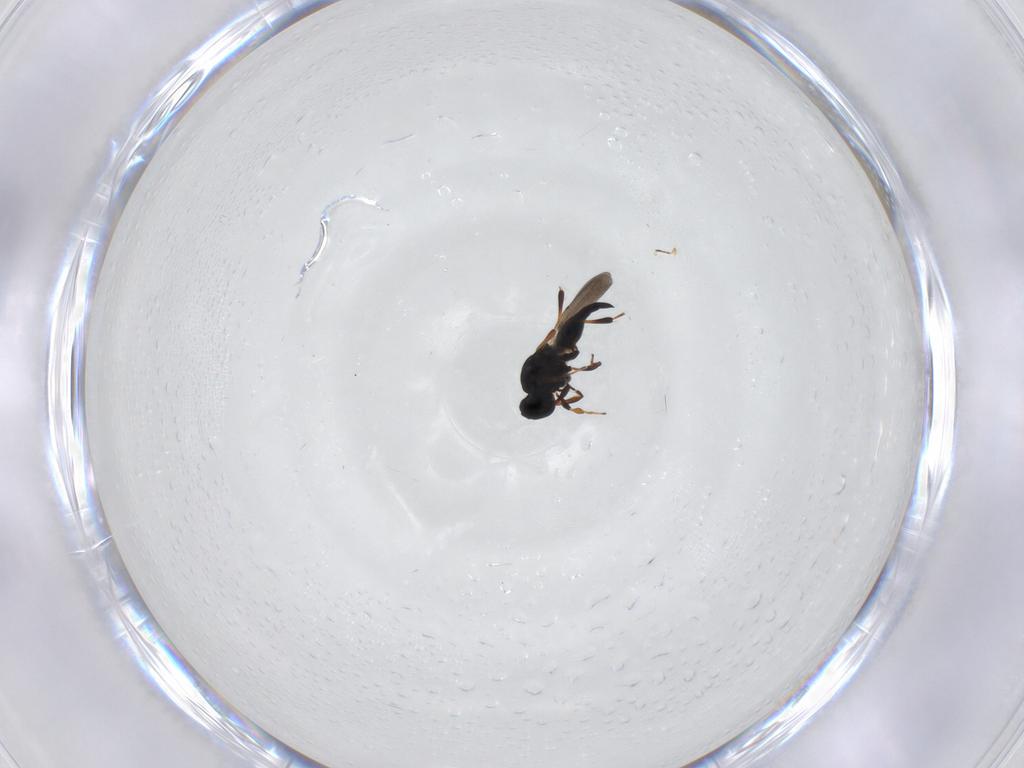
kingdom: Animalia
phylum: Arthropoda
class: Insecta
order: Hymenoptera
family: Platygastridae
